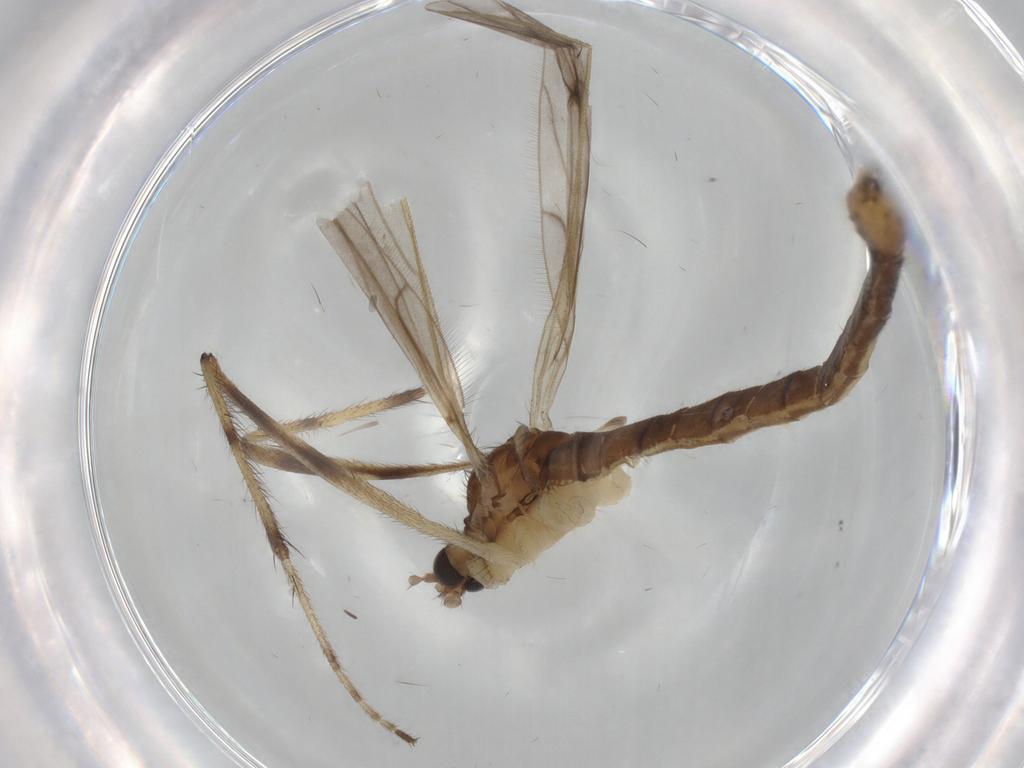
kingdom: Animalia
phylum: Arthropoda
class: Insecta
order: Diptera
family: Limoniidae
